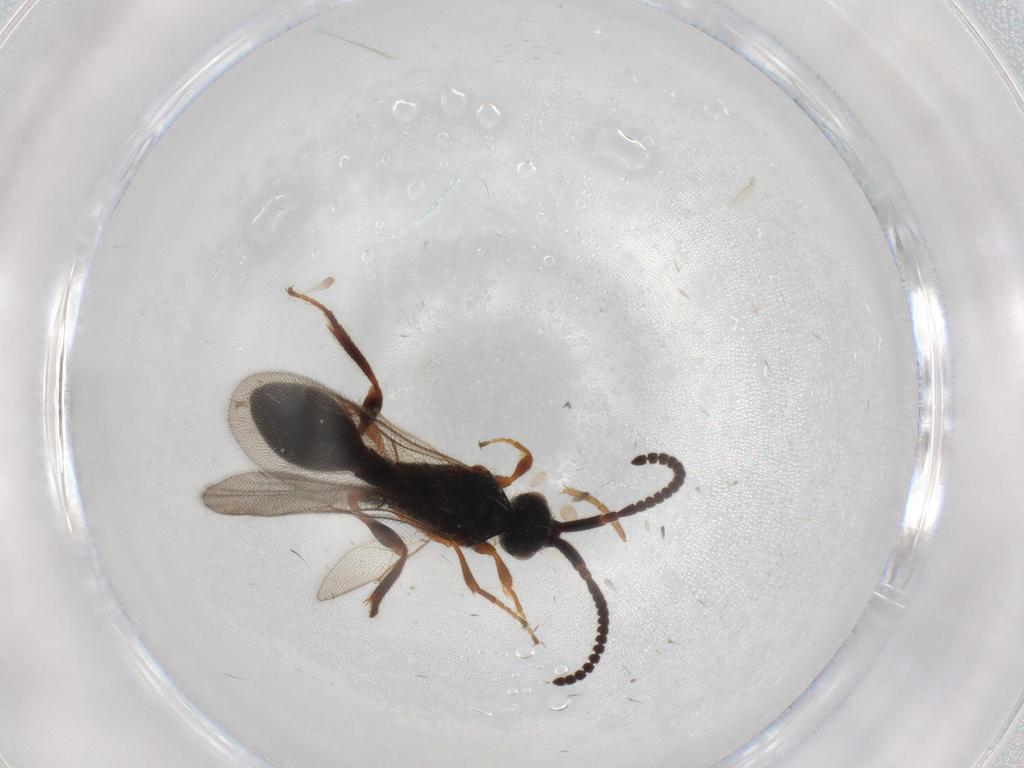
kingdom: Animalia
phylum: Arthropoda
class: Insecta
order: Hymenoptera
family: Formicidae
